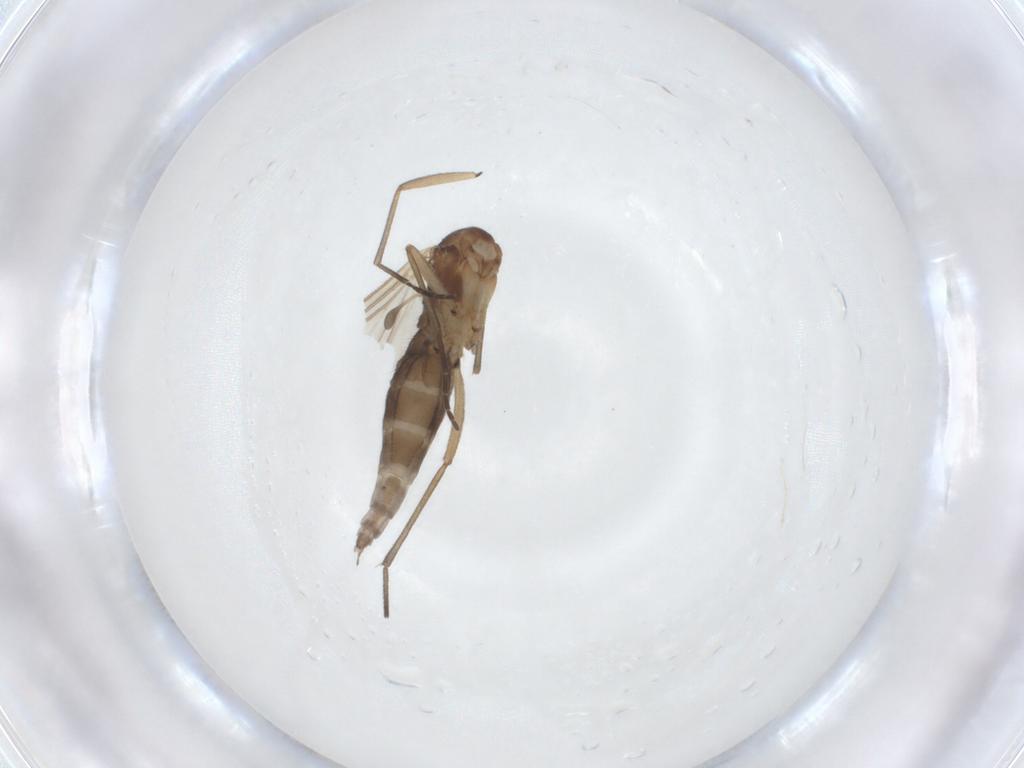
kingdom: Animalia
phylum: Arthropoda
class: Insecta
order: Diptera
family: Sciaridae
